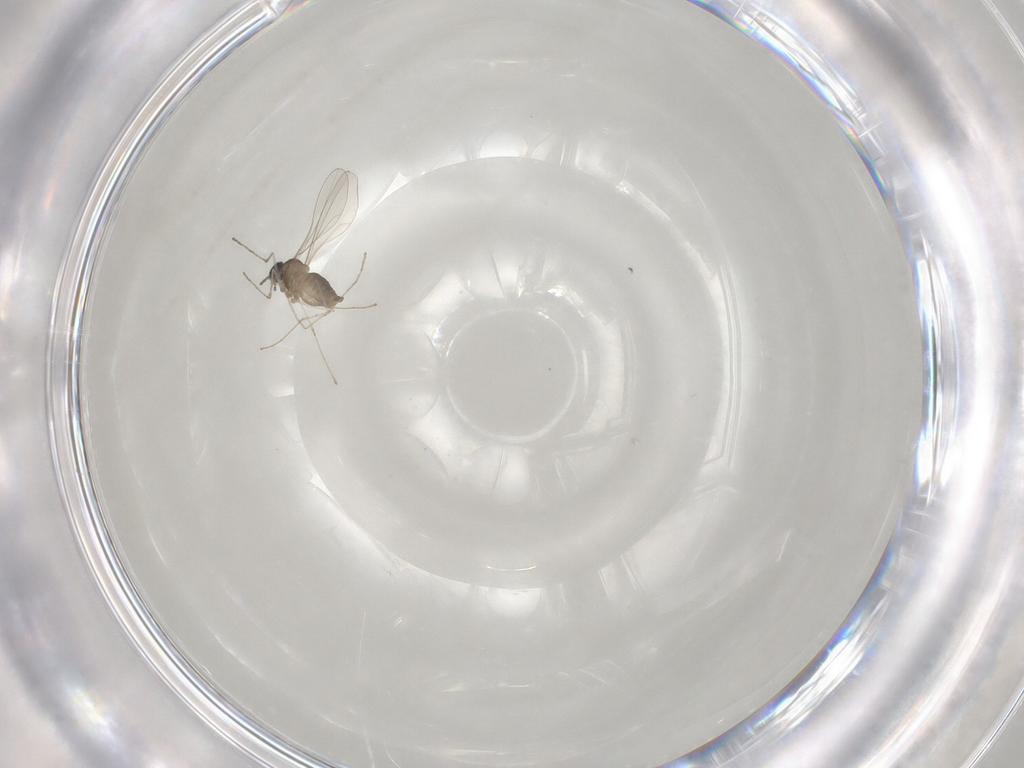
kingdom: Animalia
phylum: Arthropoda
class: Insecta
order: Diptera
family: Cecidomyiidae
